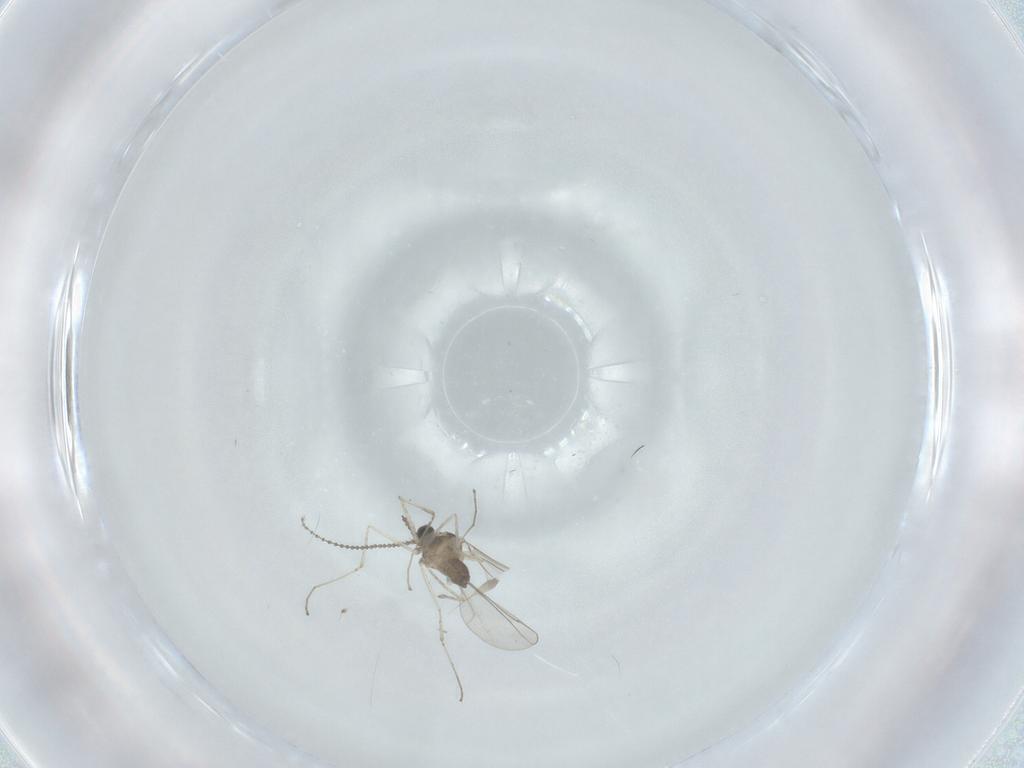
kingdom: Animalia
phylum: Arthropoda
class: Insecta
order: Diptera
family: Cecidomyiidae
